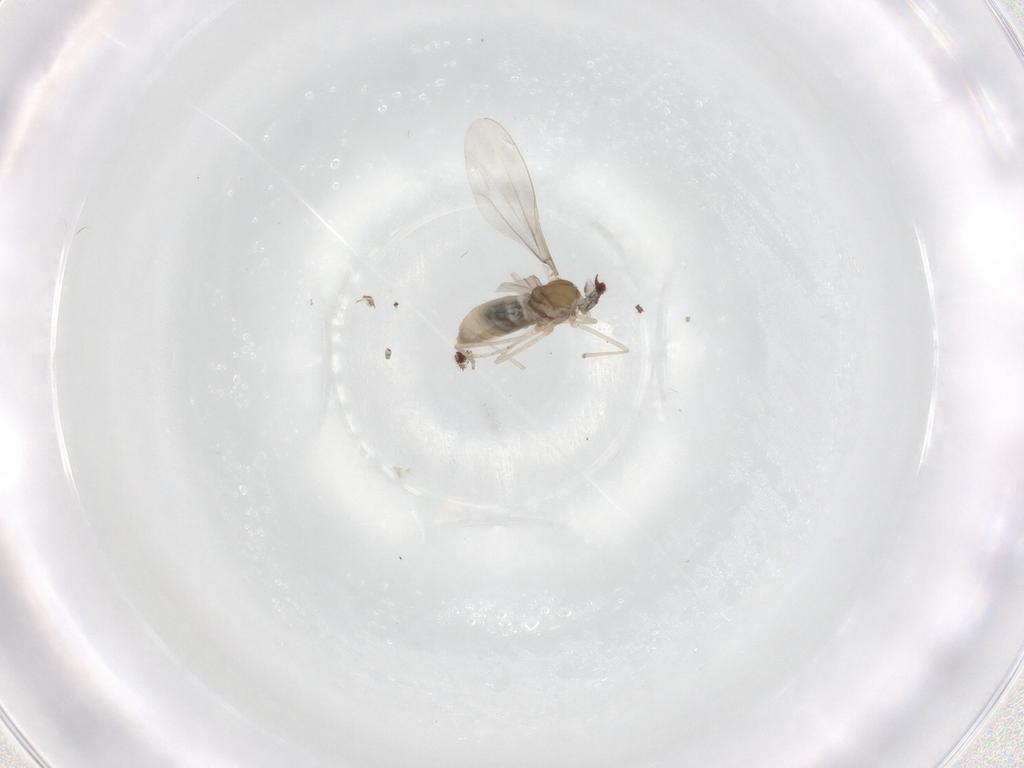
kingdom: Animalia
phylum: Arthropoda
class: Insecta
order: Diptera
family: Cecidomyiidae
